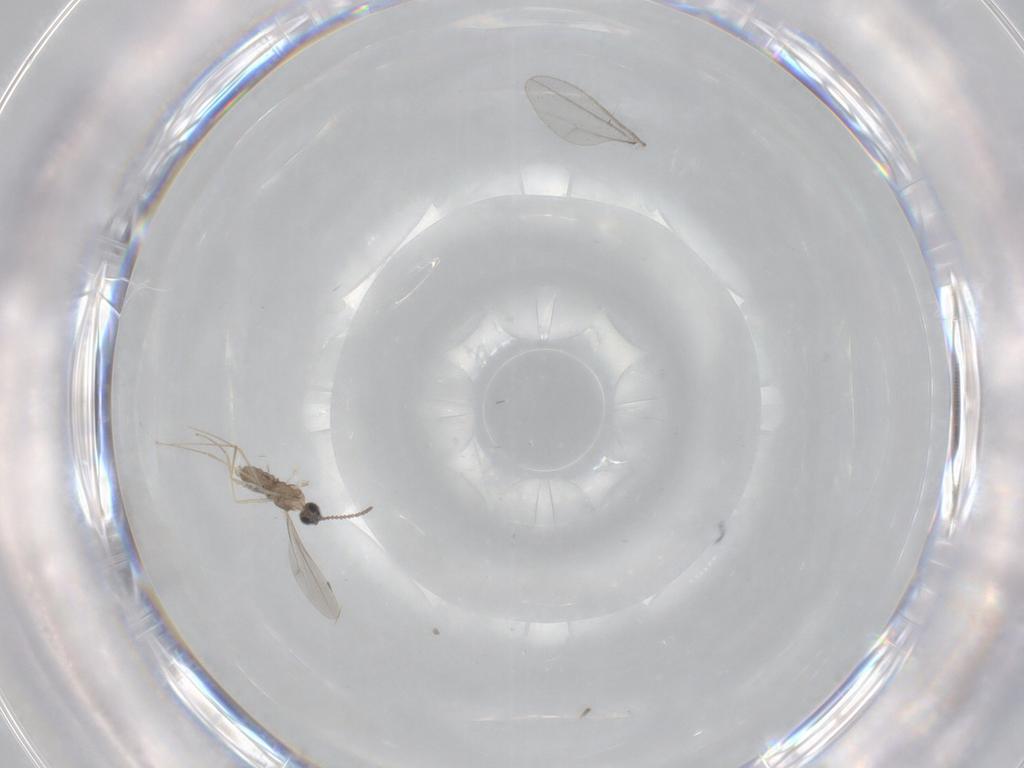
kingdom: Animalia
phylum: Arthropoda
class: Insecta
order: Diptera
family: Cecidomyiidae
